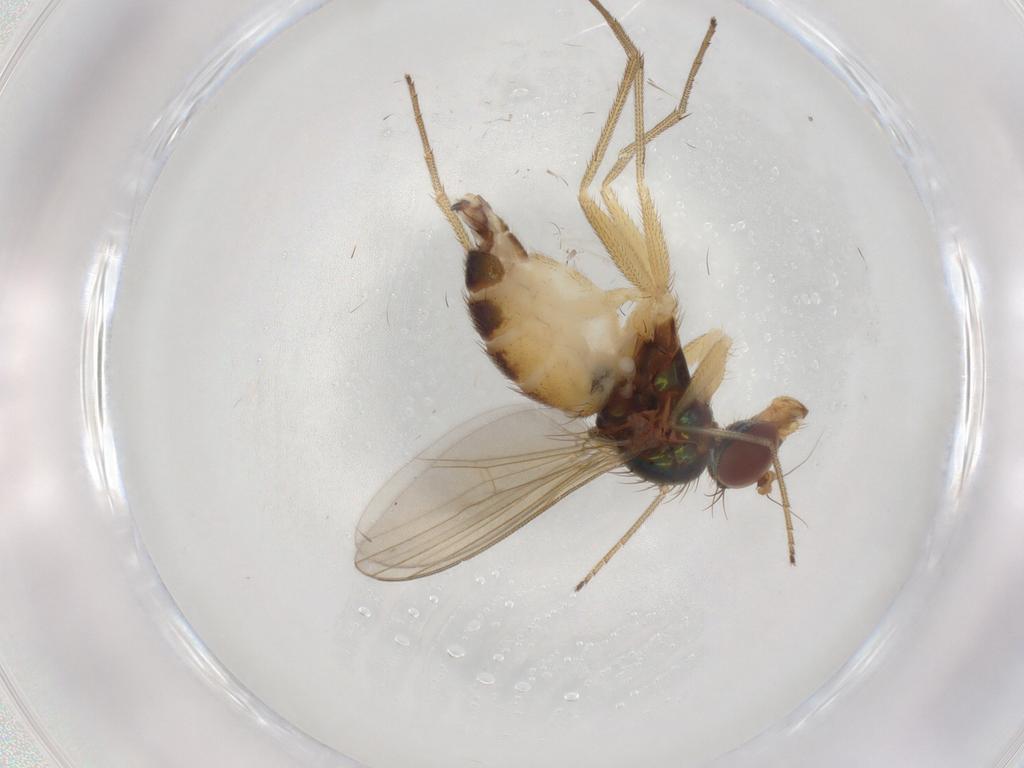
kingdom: Animalia
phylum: Arthropoda
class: Insecta
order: Diptera
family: Dolichopodidae
